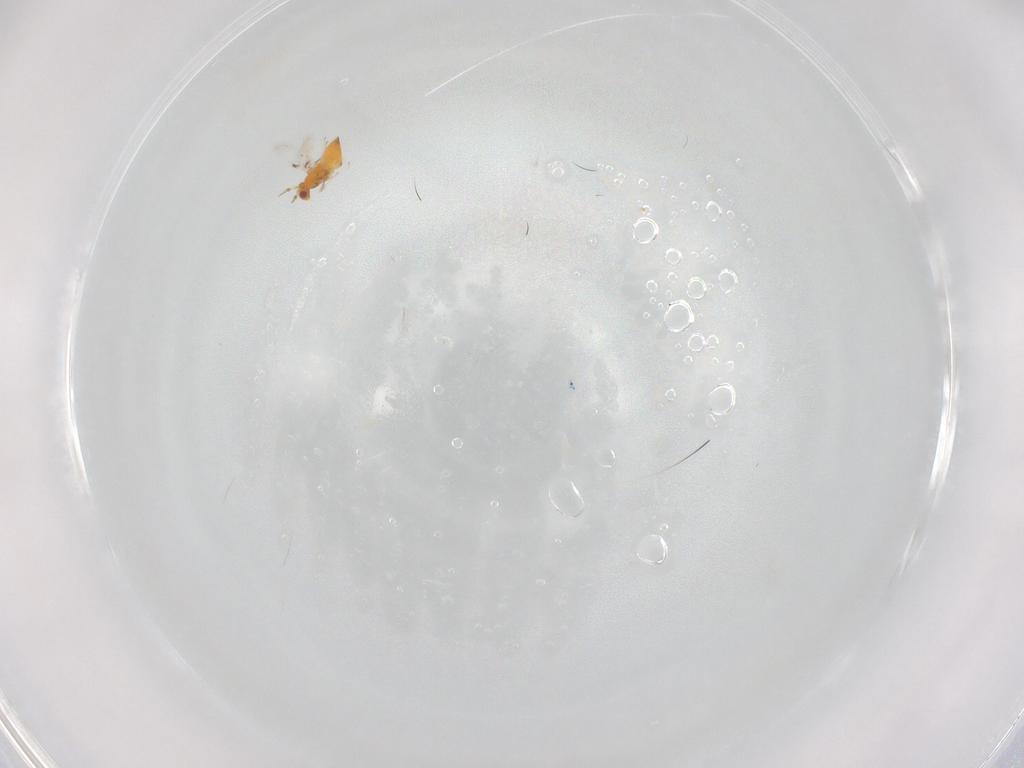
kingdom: Animalia
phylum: Arthropoda
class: Insecta
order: Hymenoptera
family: Trichogrammatidae
